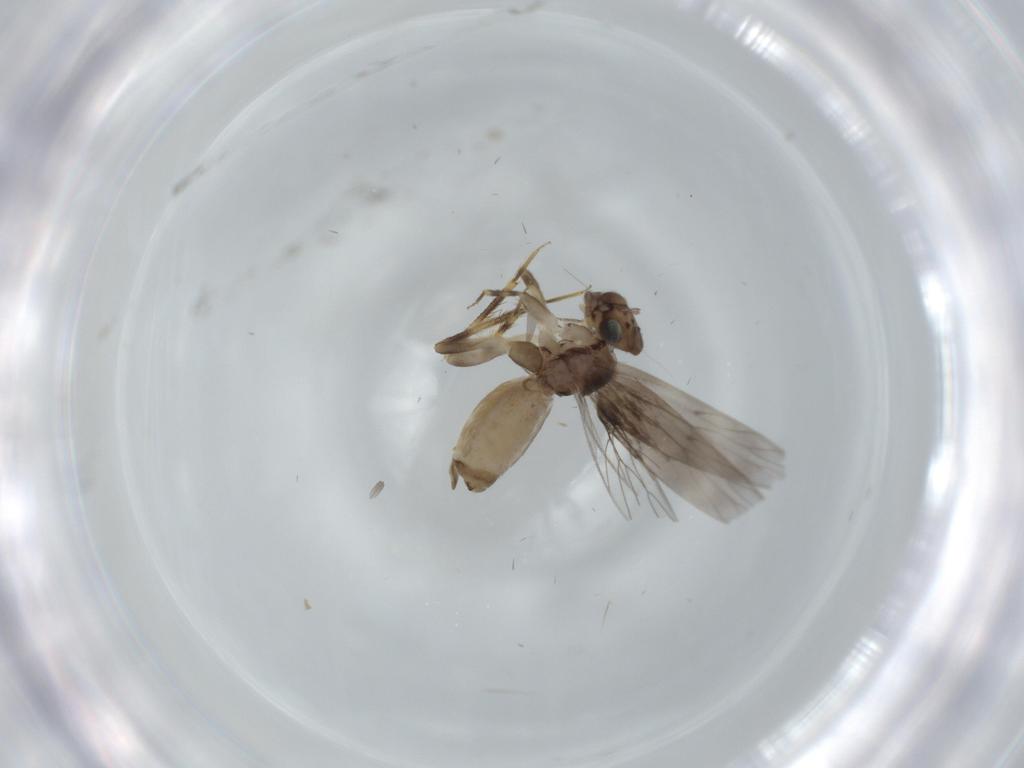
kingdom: Animalia
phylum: Arthropoda
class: Insecta
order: Psocodea
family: Lepidopsocidae
